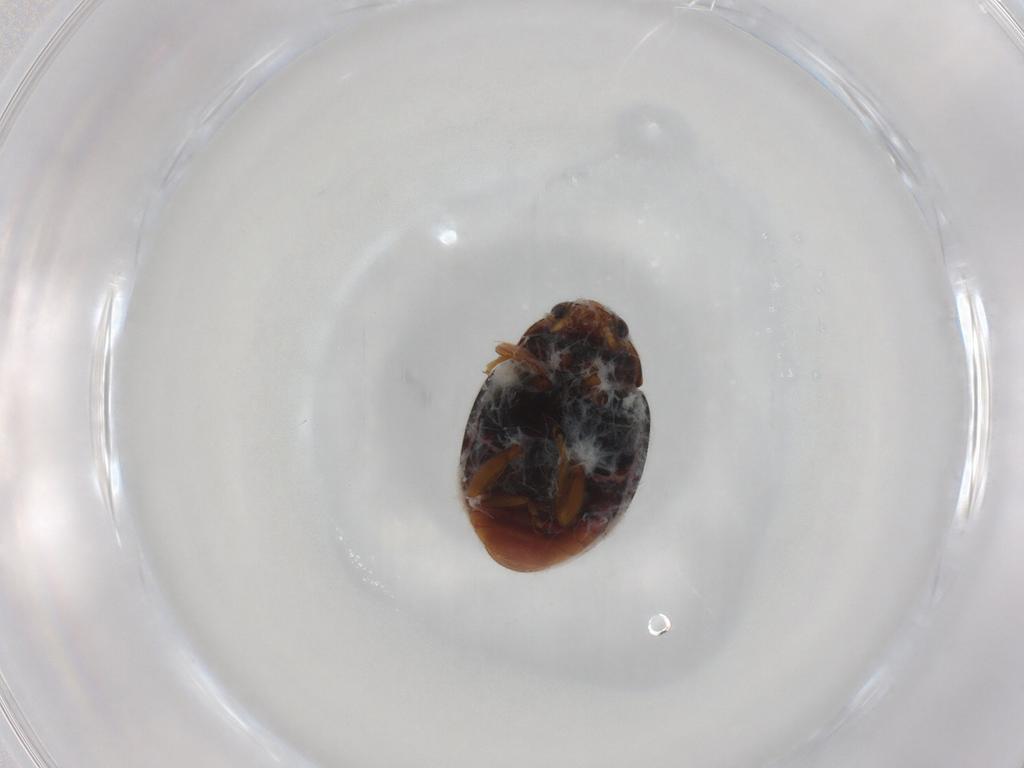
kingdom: Animalia
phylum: Arthropoda
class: Insecta
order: Coleoptera
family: Coccinellidae
